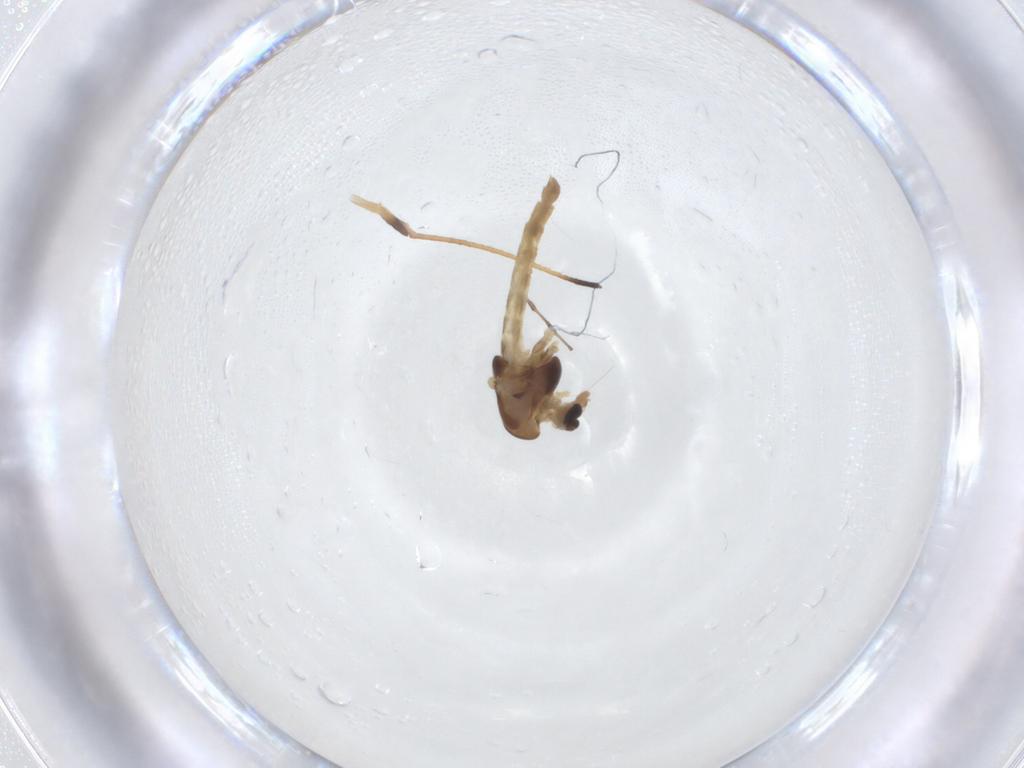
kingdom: Animalia
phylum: Arthropoda
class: Insecta
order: Diptera
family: Chironomidae
